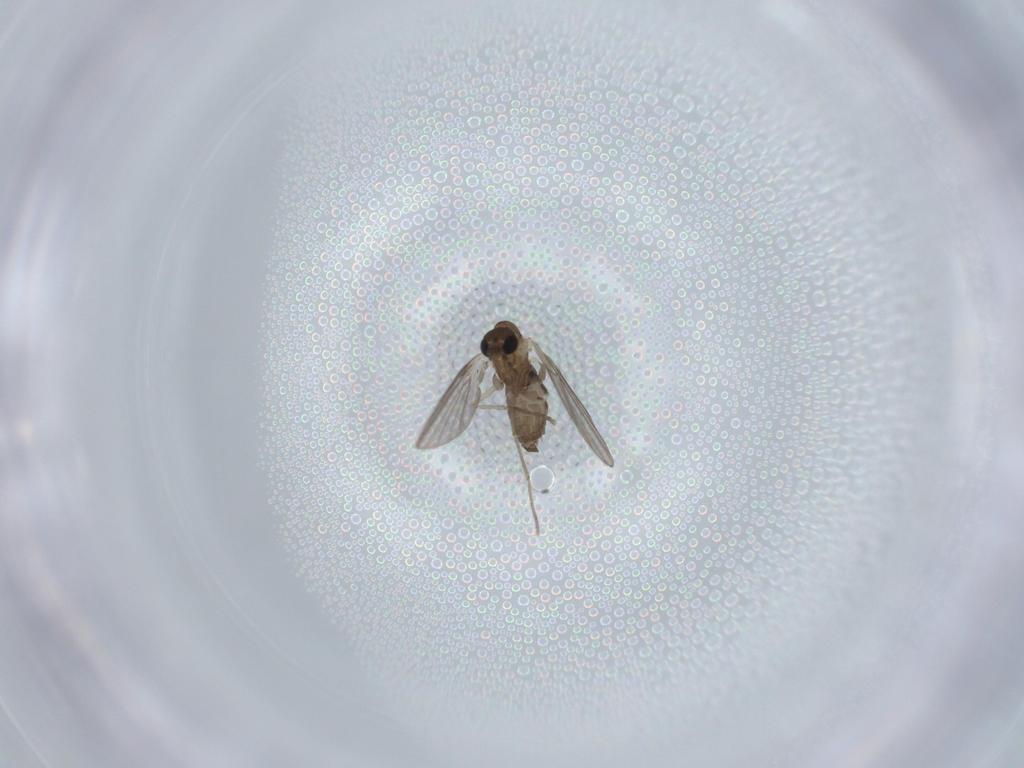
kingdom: Animalia
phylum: Arthropoda
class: Insecta
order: Diptera
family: Psychodidae
